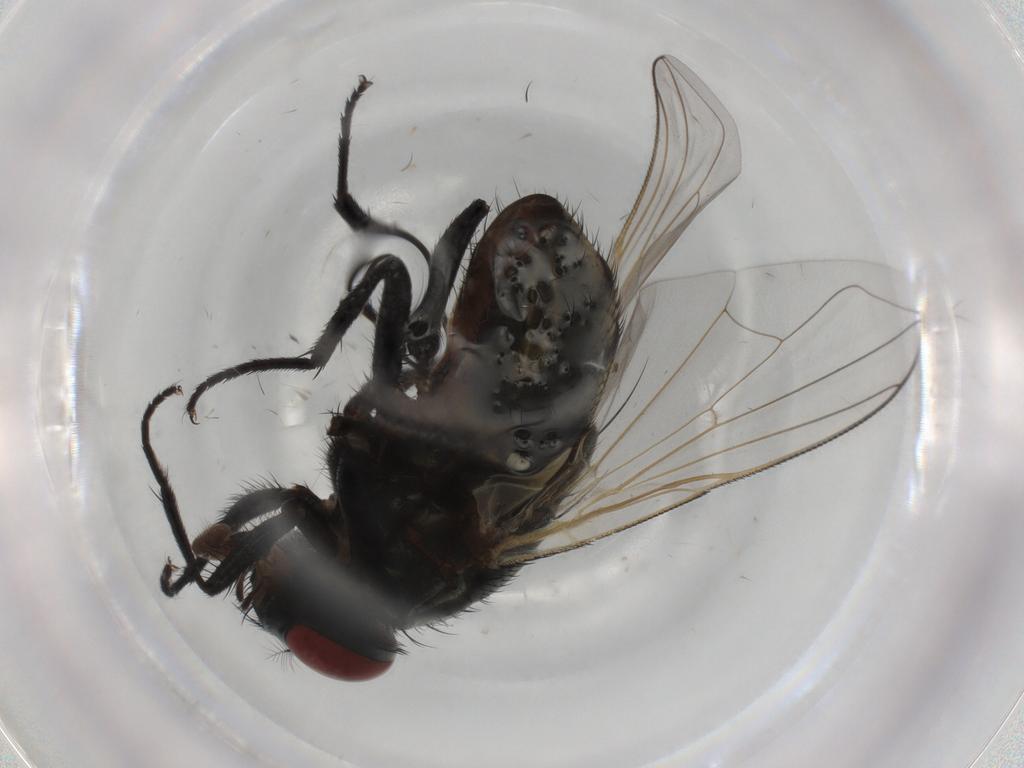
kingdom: Animalia
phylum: Arthropoda
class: Insecta
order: Diptera
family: Muscidae
